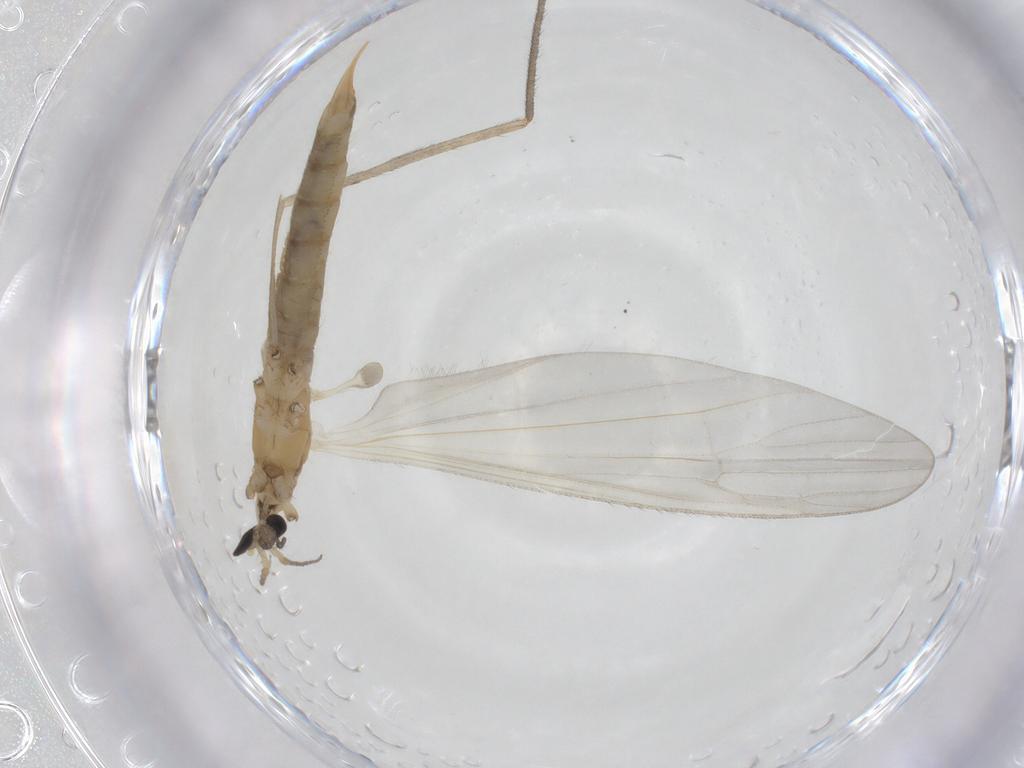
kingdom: Animalia
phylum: Arthropoda
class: Insecta
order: Diptera
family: Limoniidae
